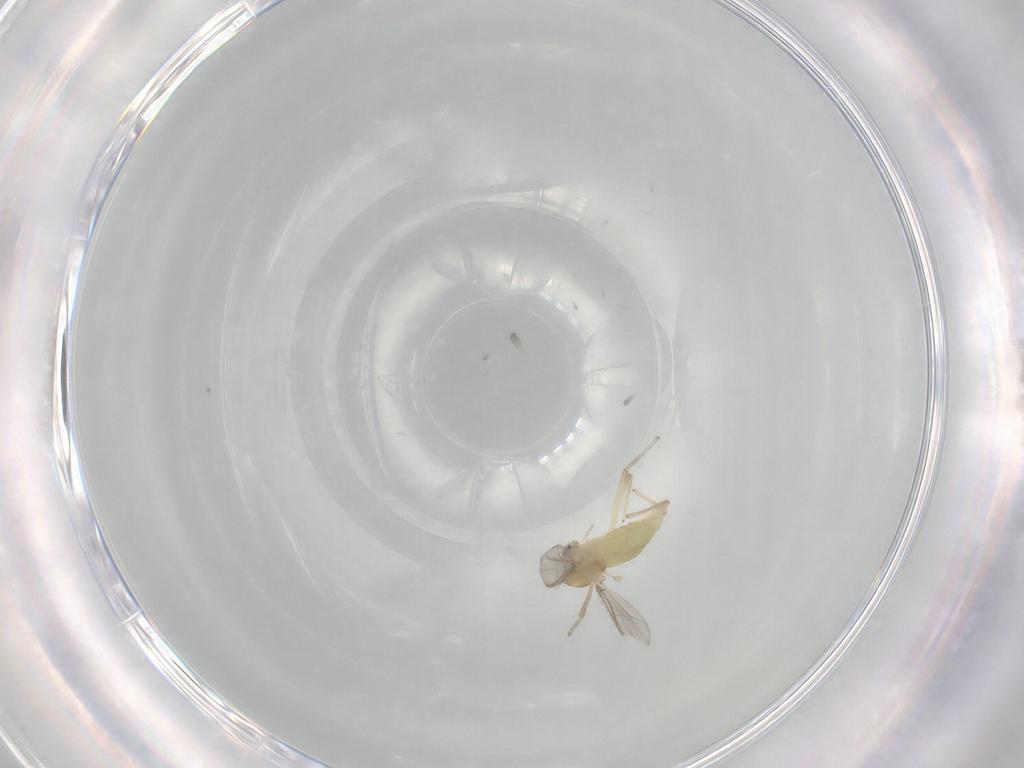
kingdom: Animalia
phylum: Arthropoda
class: Insecta
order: Diptera
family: Chironomidae
